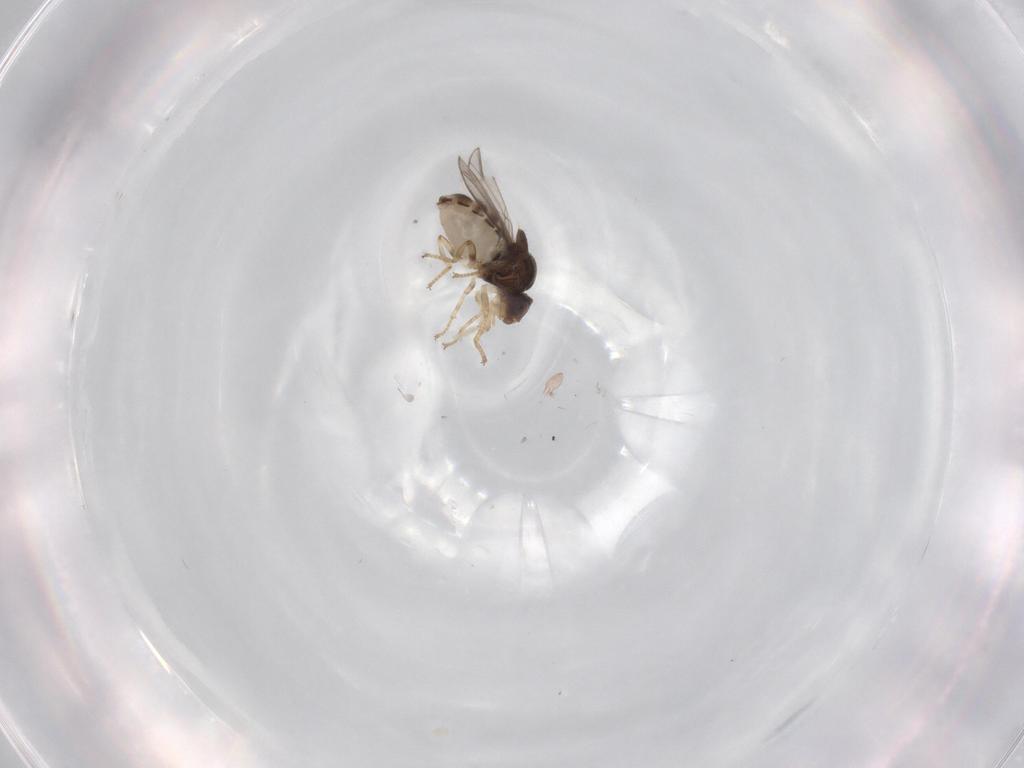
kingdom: Animalia
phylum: Arthropoda
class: Insecta
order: Diptera
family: Chloropidae
